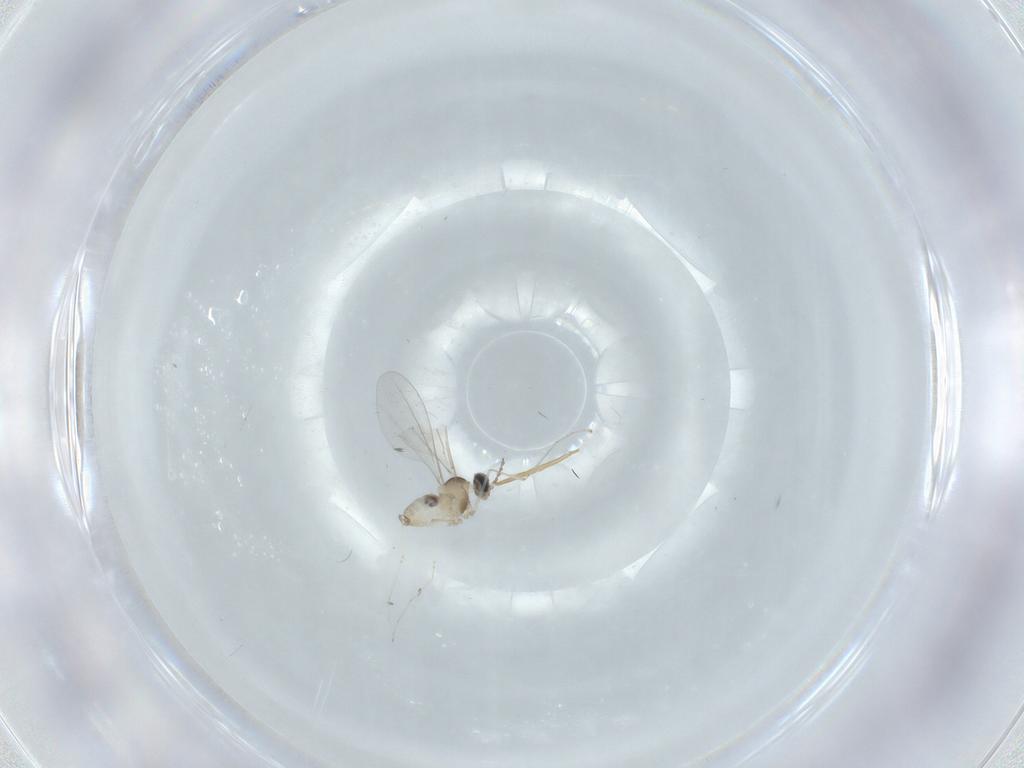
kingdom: Animalia
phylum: Arthropoda
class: Insecta
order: Diptera
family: Cecidomyiidae
